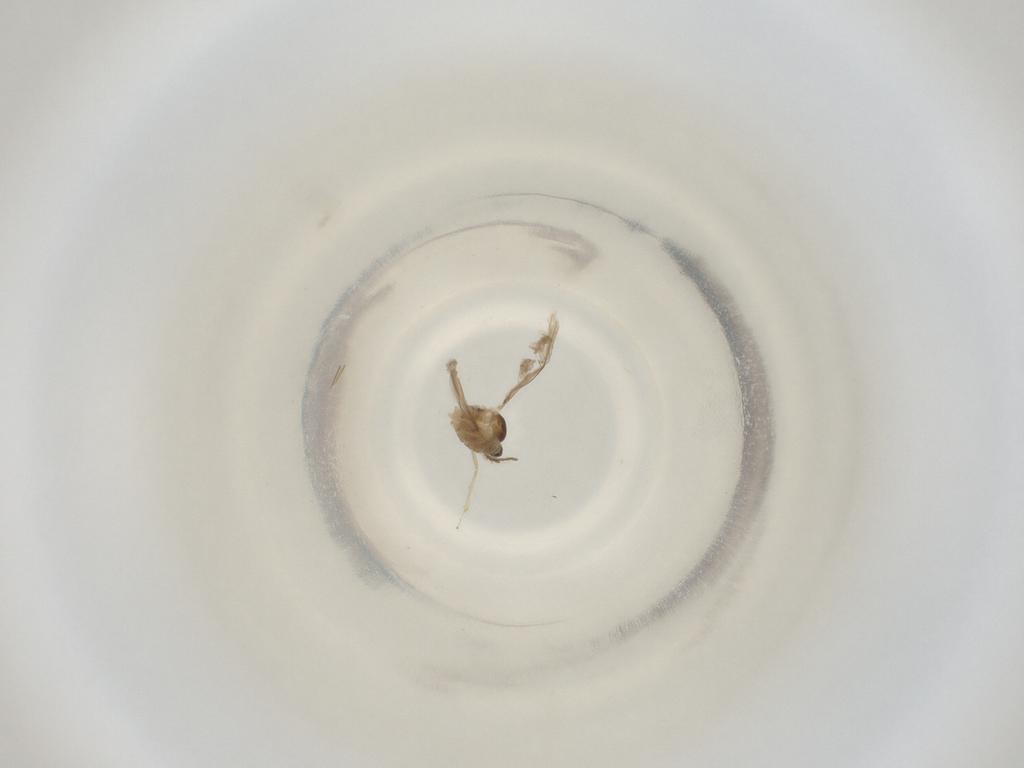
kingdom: Animalia
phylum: Arthropoda
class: Insecta
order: Diptera
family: Cecidomyiidae
